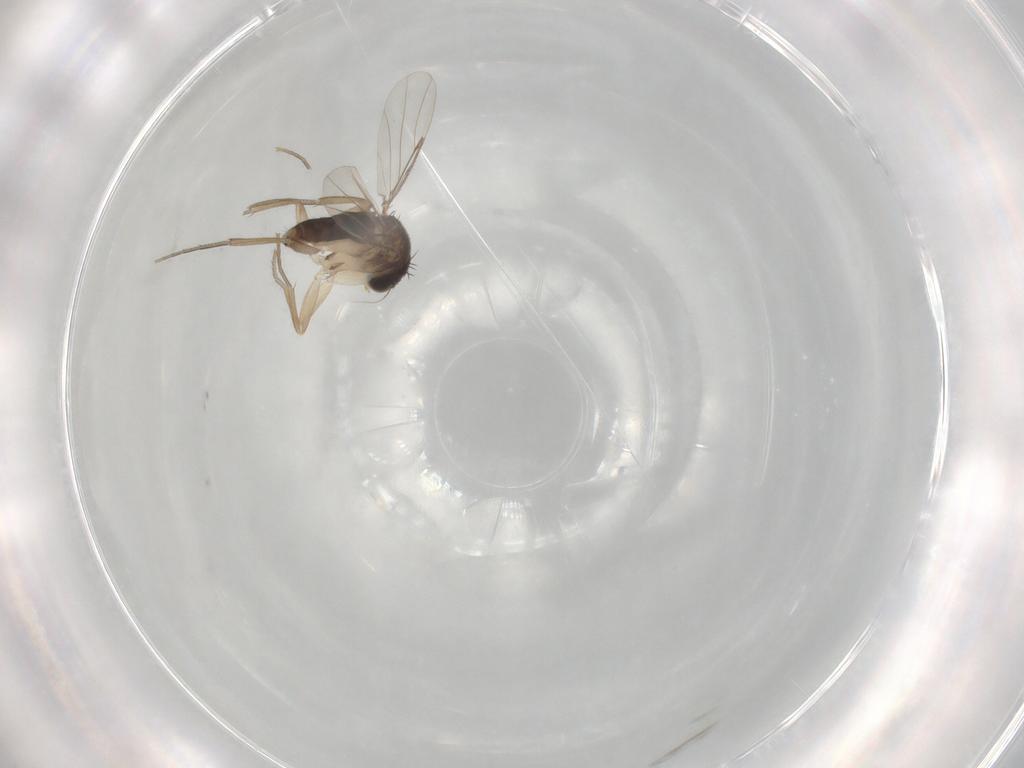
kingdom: Animalia
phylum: Arthropoda
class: Insecta
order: Diptera
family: Phoridae
